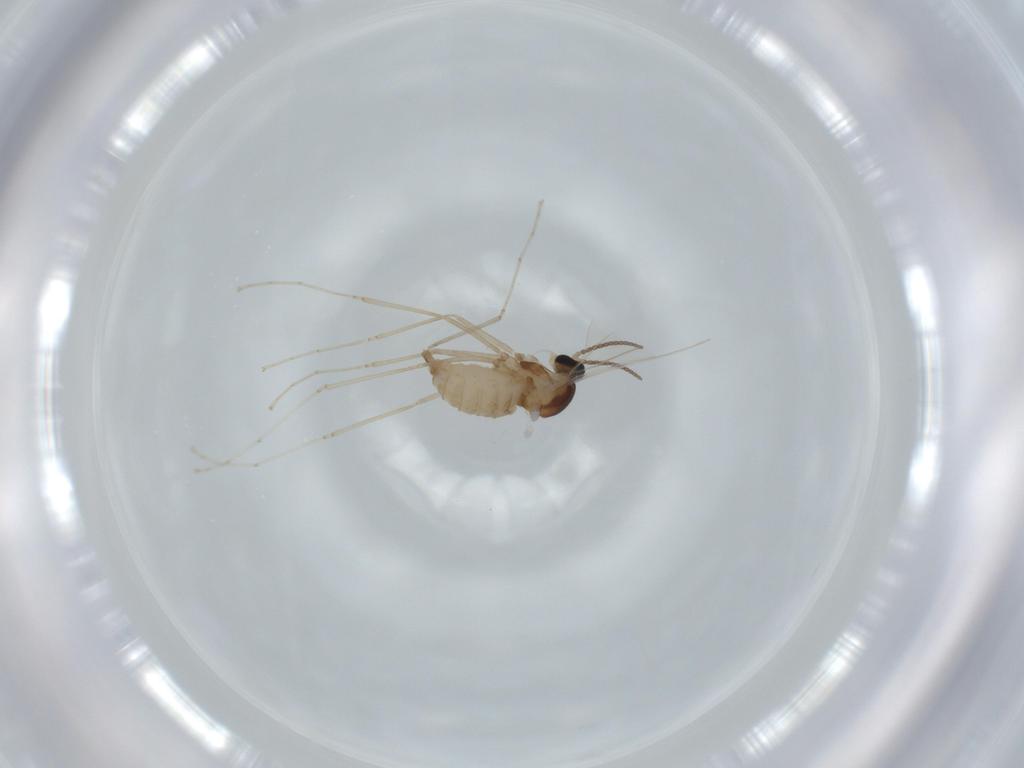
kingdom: Animalia
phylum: Arthropoda
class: Insecta
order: Diptera
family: Cecidomyiidae
